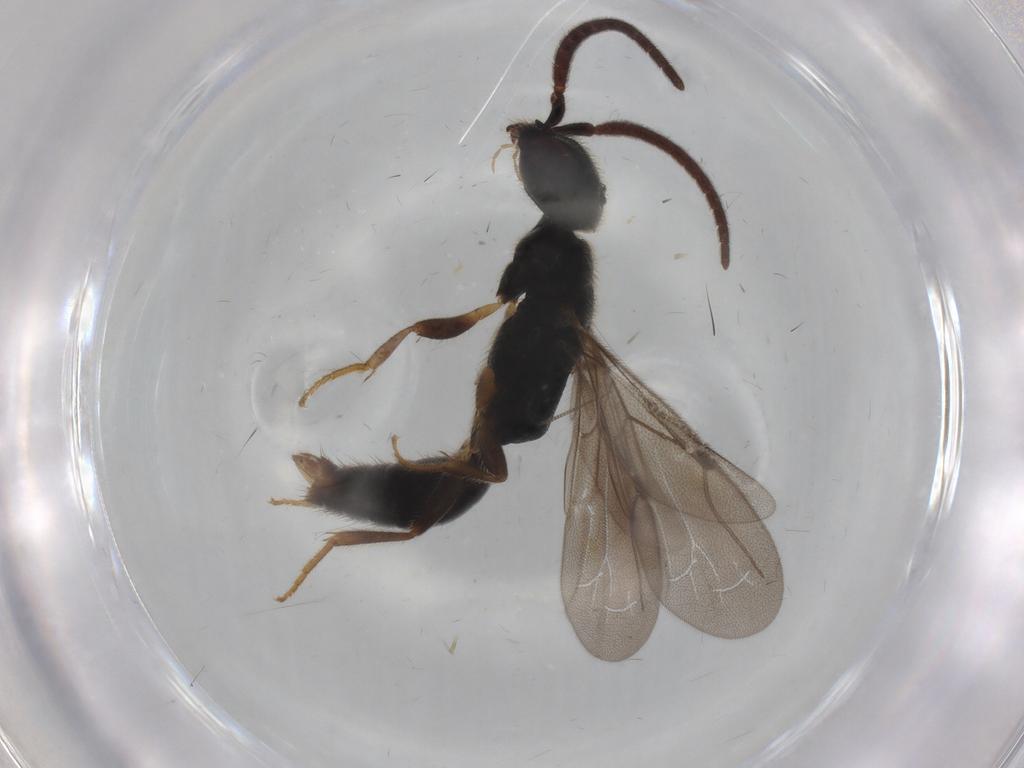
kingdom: Animalia
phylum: Arthropoda
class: Insecta
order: Hymenoptera
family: Bethylidae
